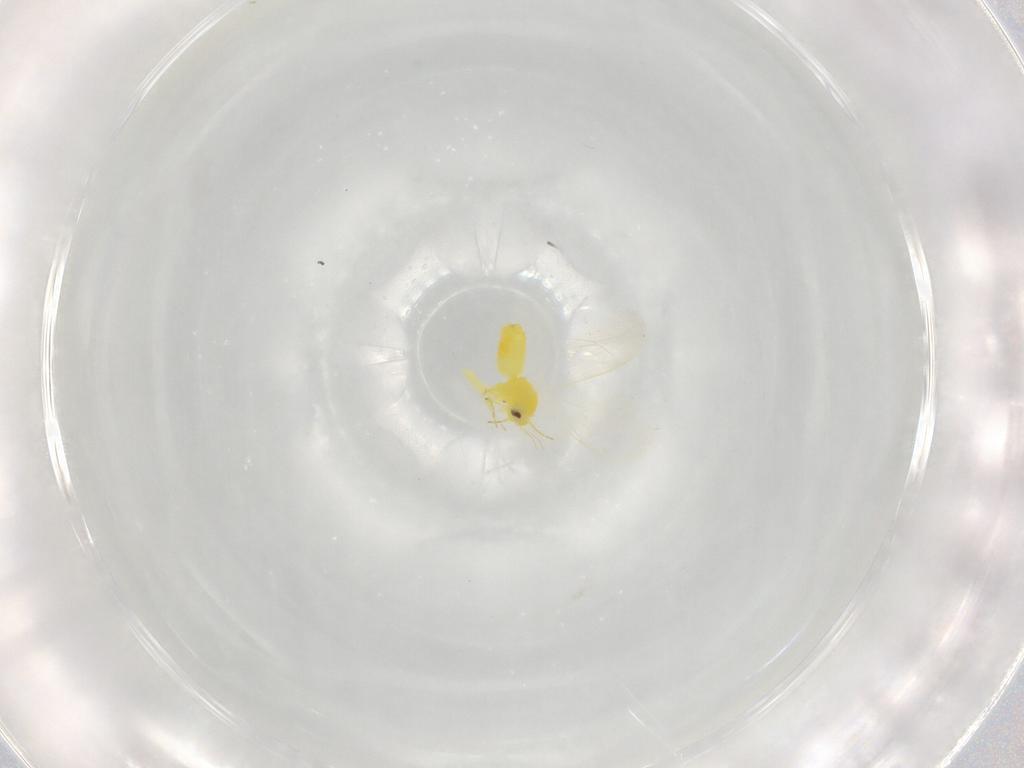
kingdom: Animalia
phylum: Arthropoda
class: Insecta
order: Hemiptera
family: Aleyrodidae
